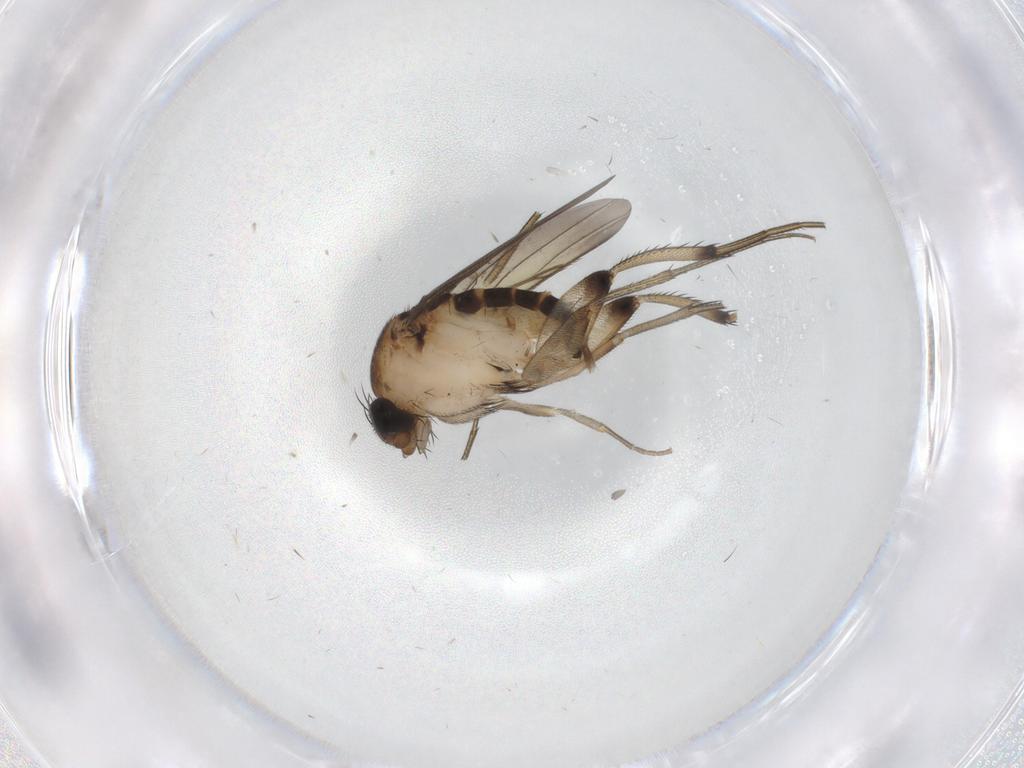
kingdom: Animalia
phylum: Arthropoda
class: Insecta
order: Diptera
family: Phoridae
